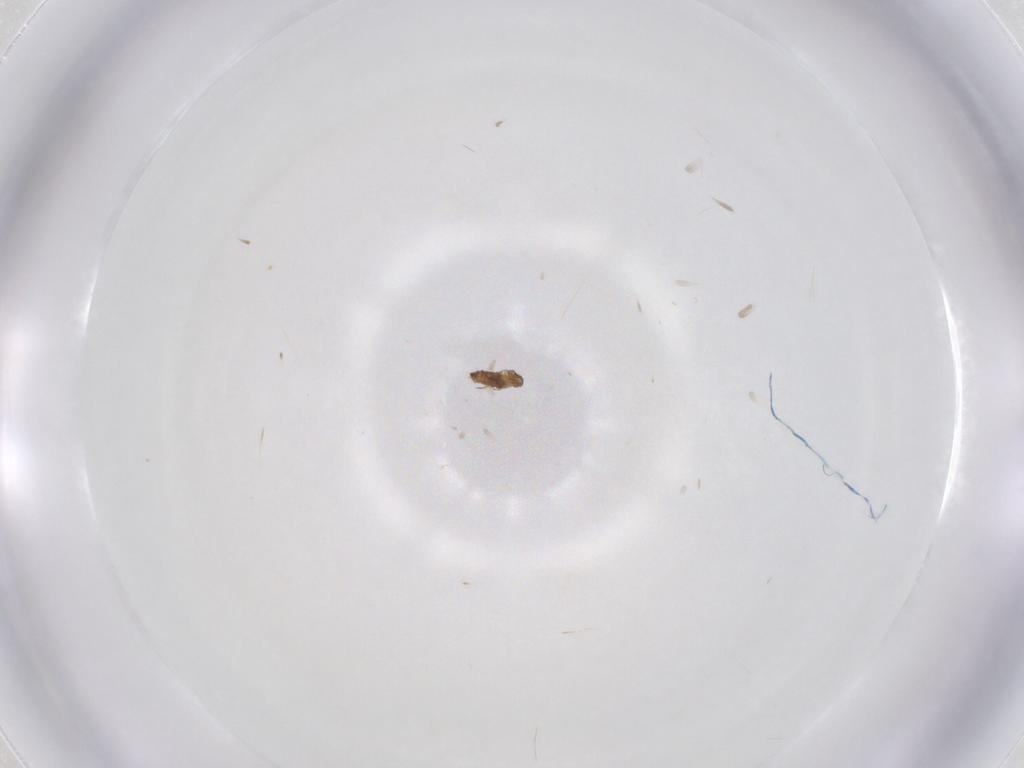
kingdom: Animalia
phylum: Arthropoda
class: Insecta
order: Diptera
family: Cecidomyiidae
